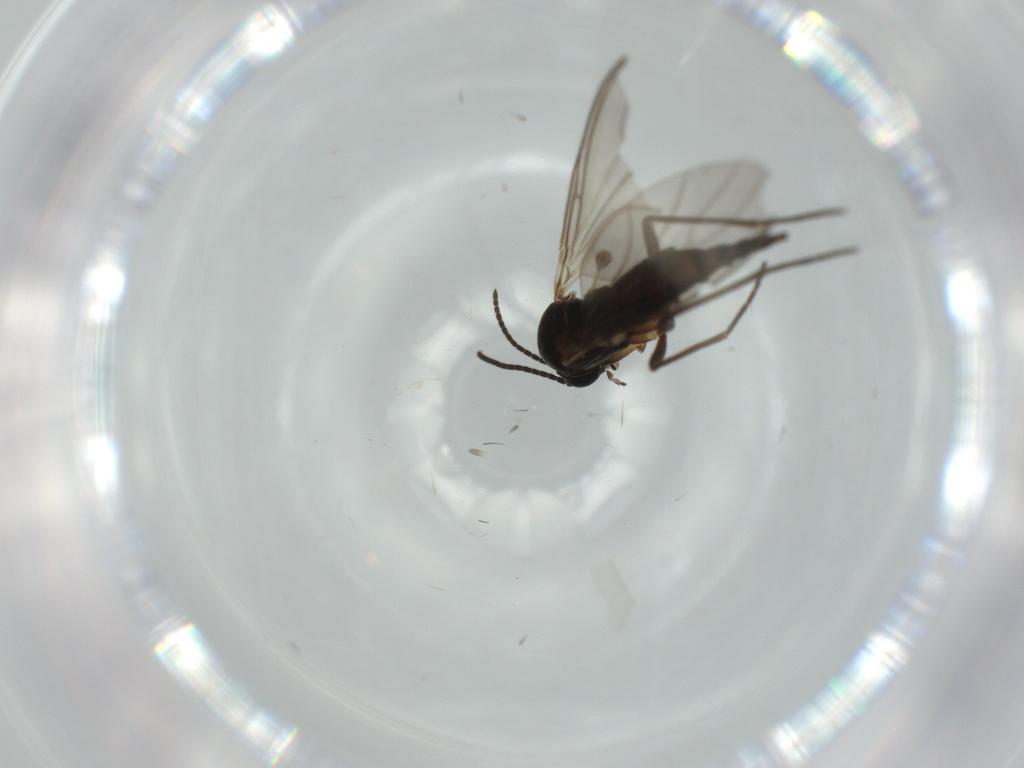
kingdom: Animalia
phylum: Arthropoda
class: Insecta
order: Diptera
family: Sciaridae
